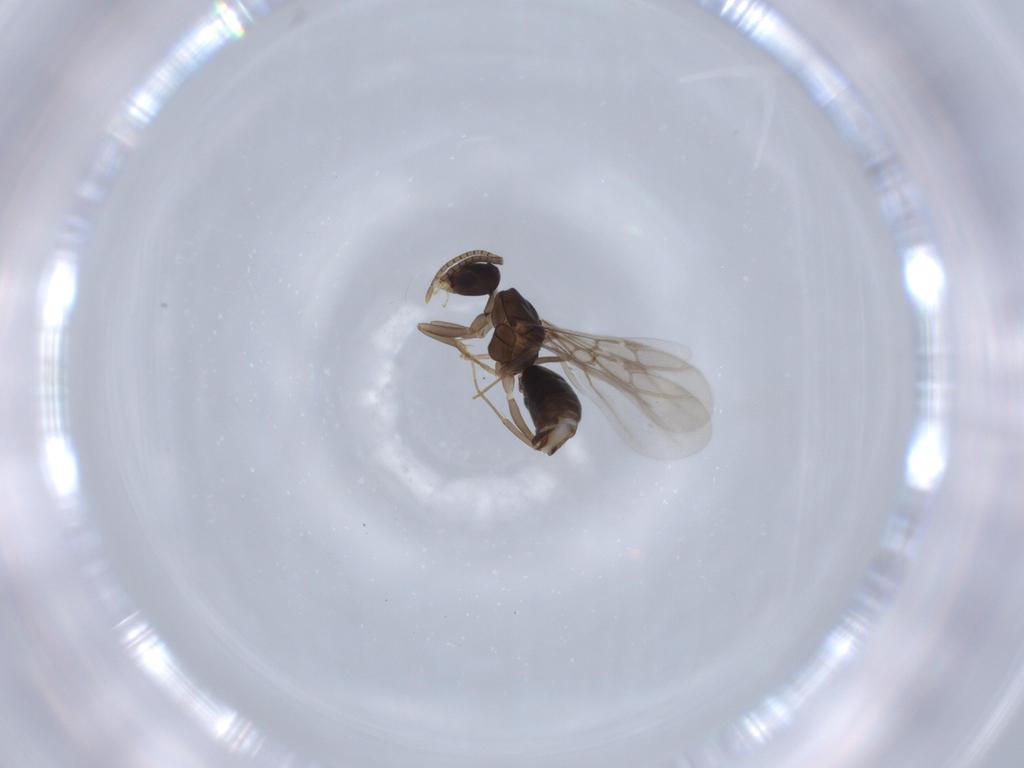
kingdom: Animalia
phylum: Arthropoda
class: Insecta
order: Hymenoptera
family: Formicidae
